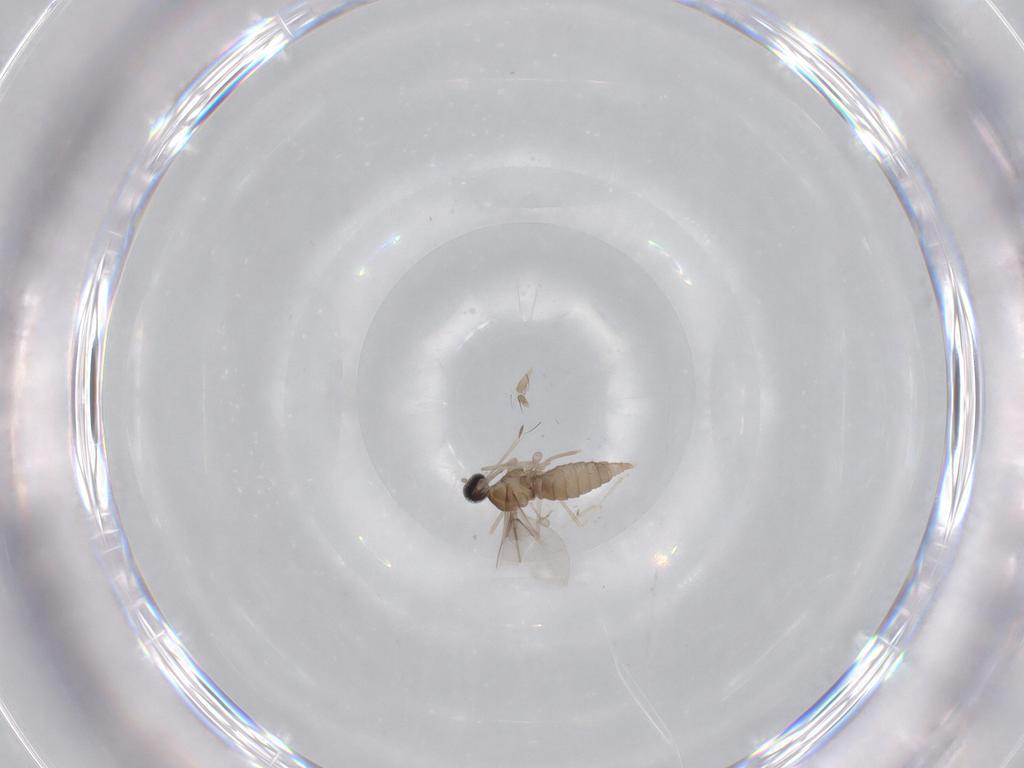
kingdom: Animalia
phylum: Arthropoda
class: Insecta
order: Diptera
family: Cecidomyiidae
